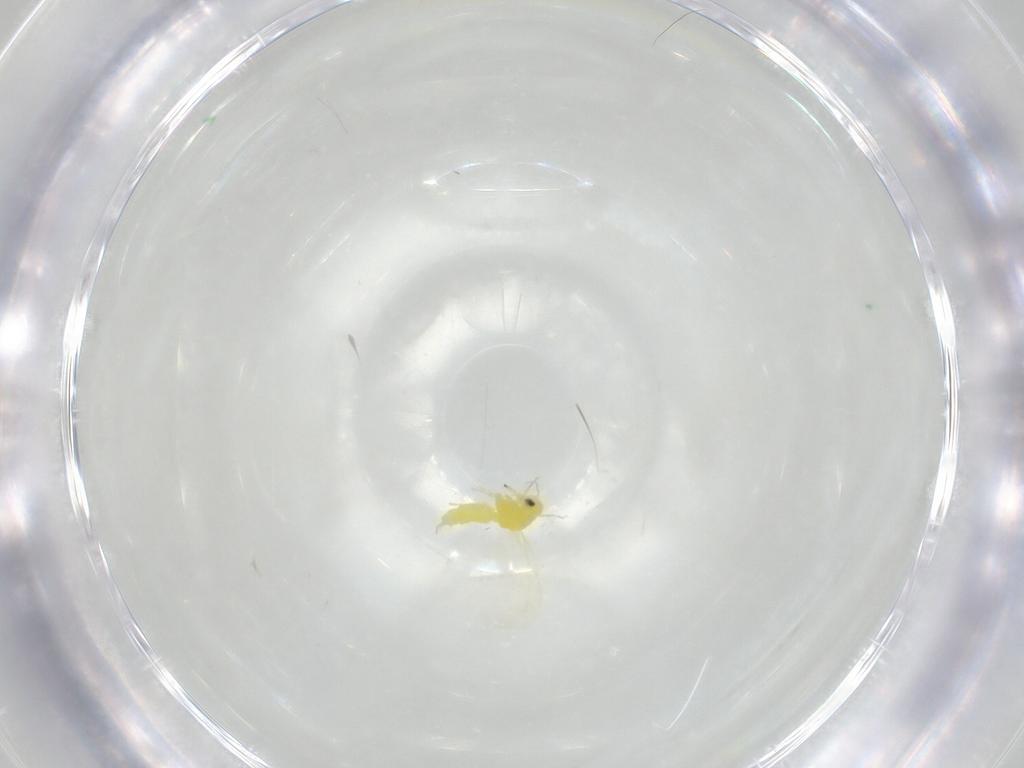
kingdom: Animalia
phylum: Arthropoda
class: Insecta
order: Hemiptera
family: Aleyrodidae
